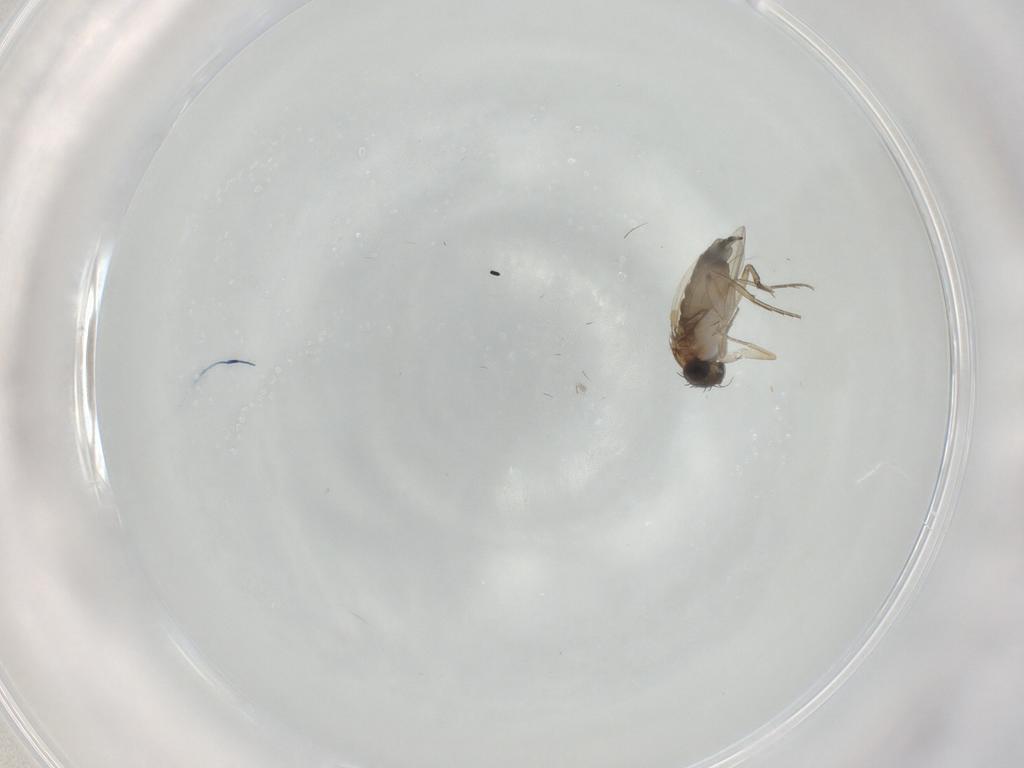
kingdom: Animalia
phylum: Arthropoda
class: Insecta
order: Diptera
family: Phoridae
